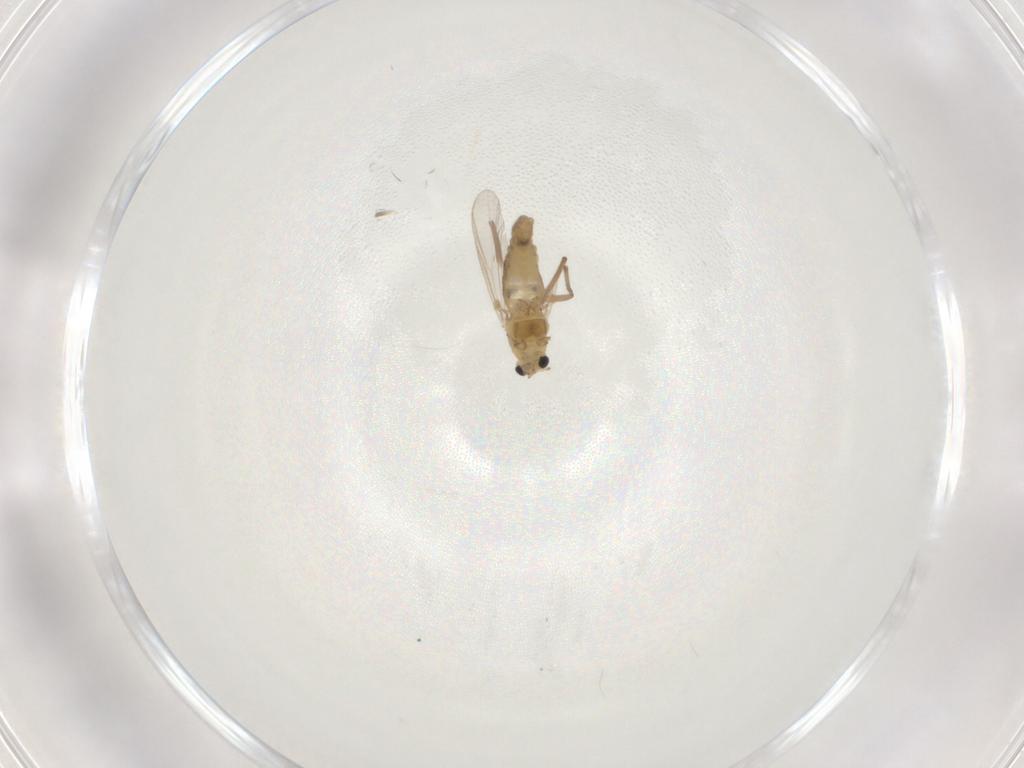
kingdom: Animalia
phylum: Arthropoda
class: Insecta
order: Diptera
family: Chironomidae
